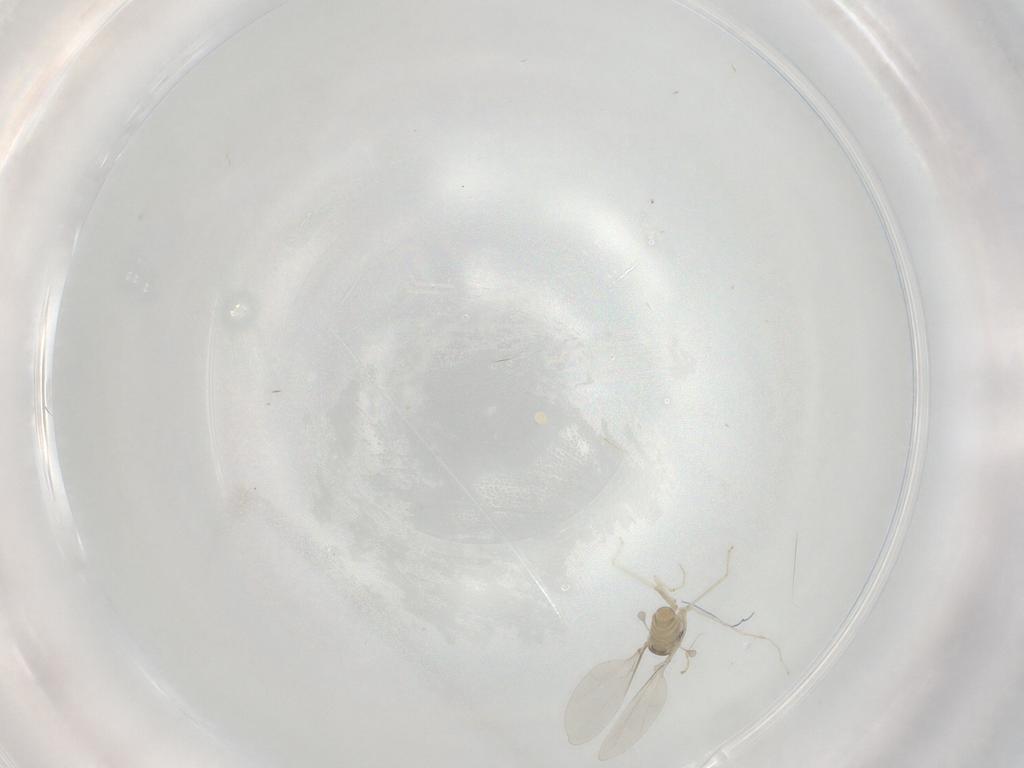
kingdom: Animalia
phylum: Arthropoda
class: Insecta
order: Diptera
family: Cecidomyiidae
